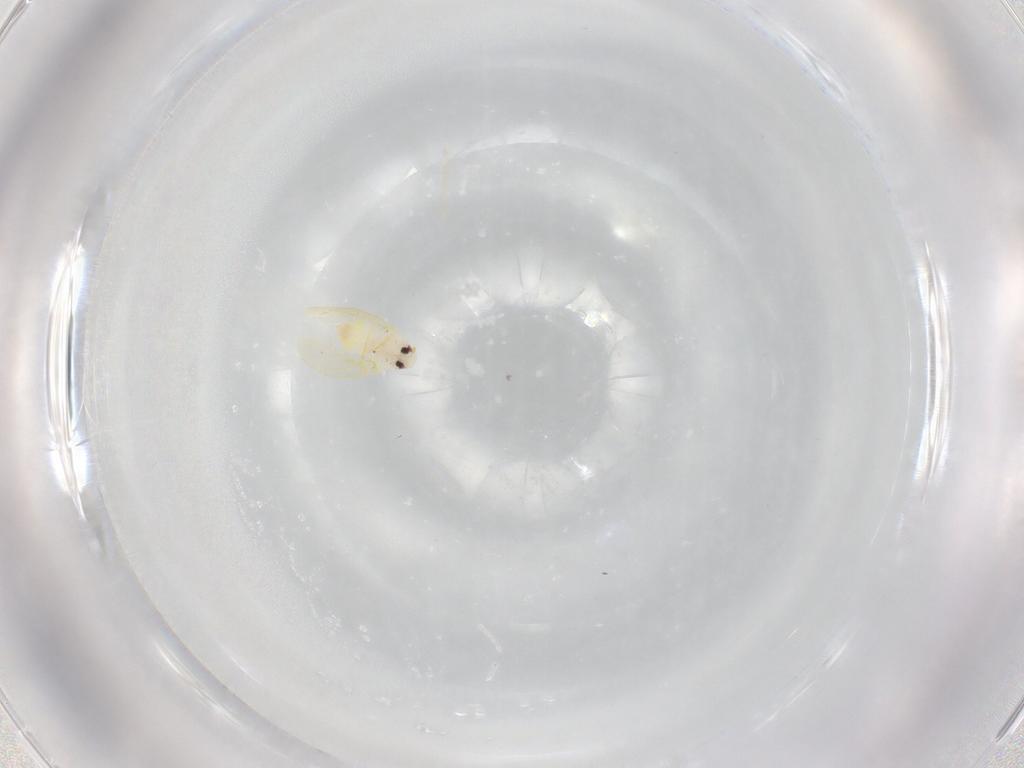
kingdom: Animalia
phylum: Arthropoda
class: Insecta
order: Hemiptera
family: Aleyrodidae
